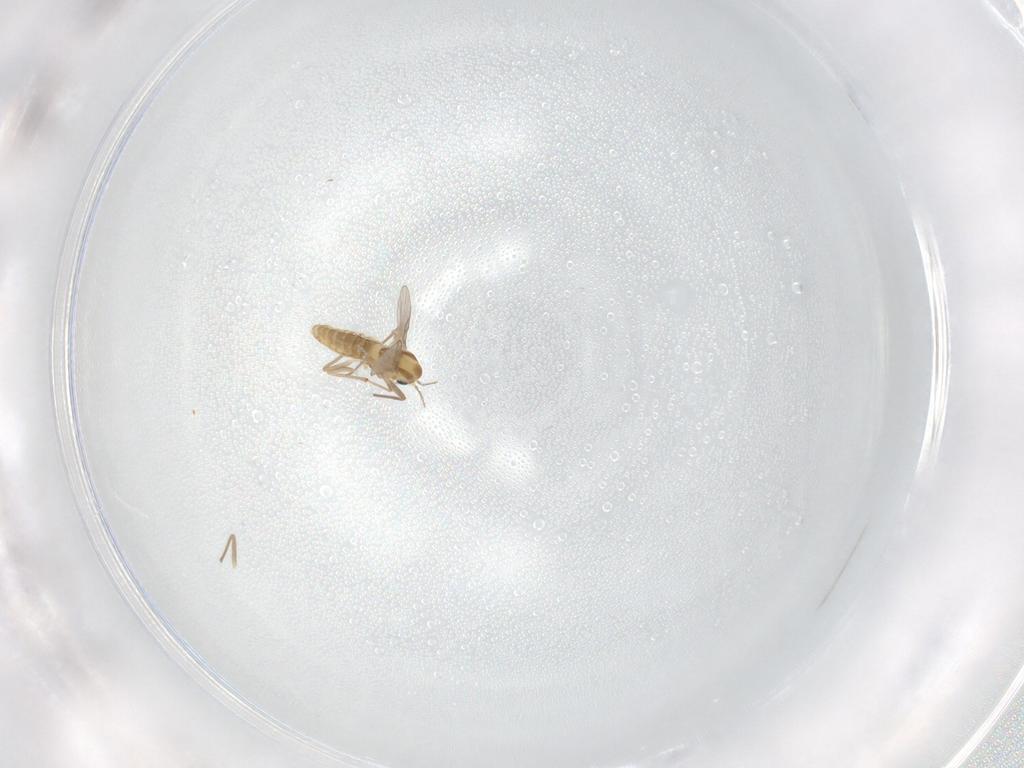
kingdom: Animalia
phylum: Arthropoda
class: Insecta
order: Diptera
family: Chironomidae
